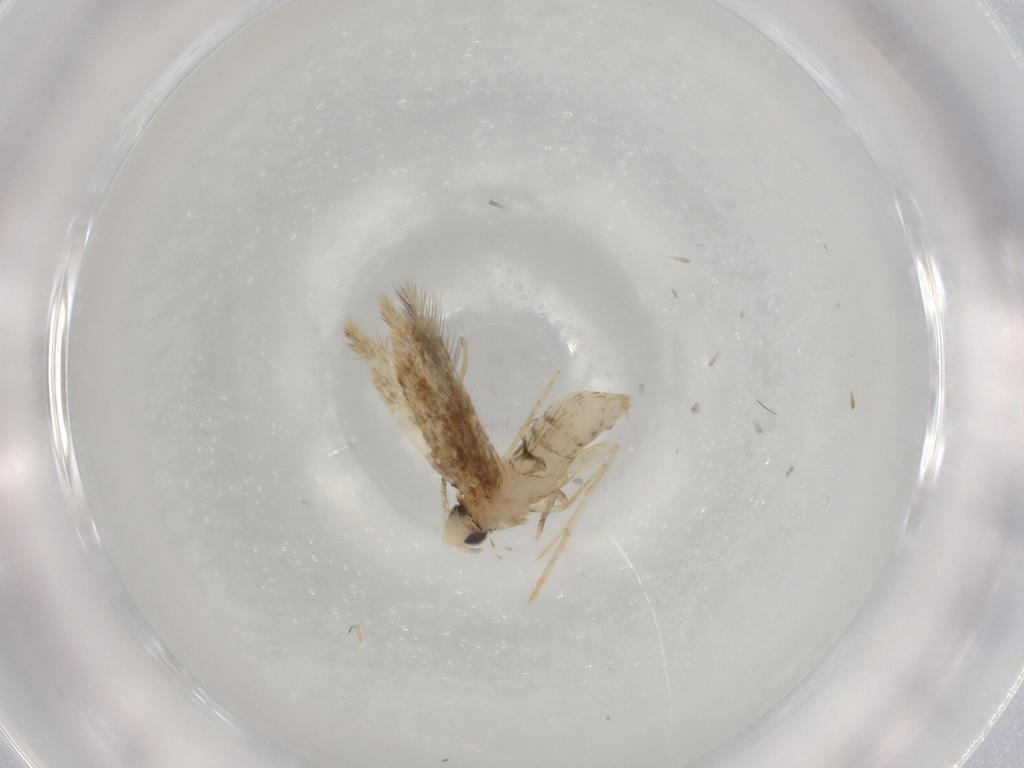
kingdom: Animalia
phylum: Arthropoda
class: Insecta
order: Lepidoptera
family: Tineidae
